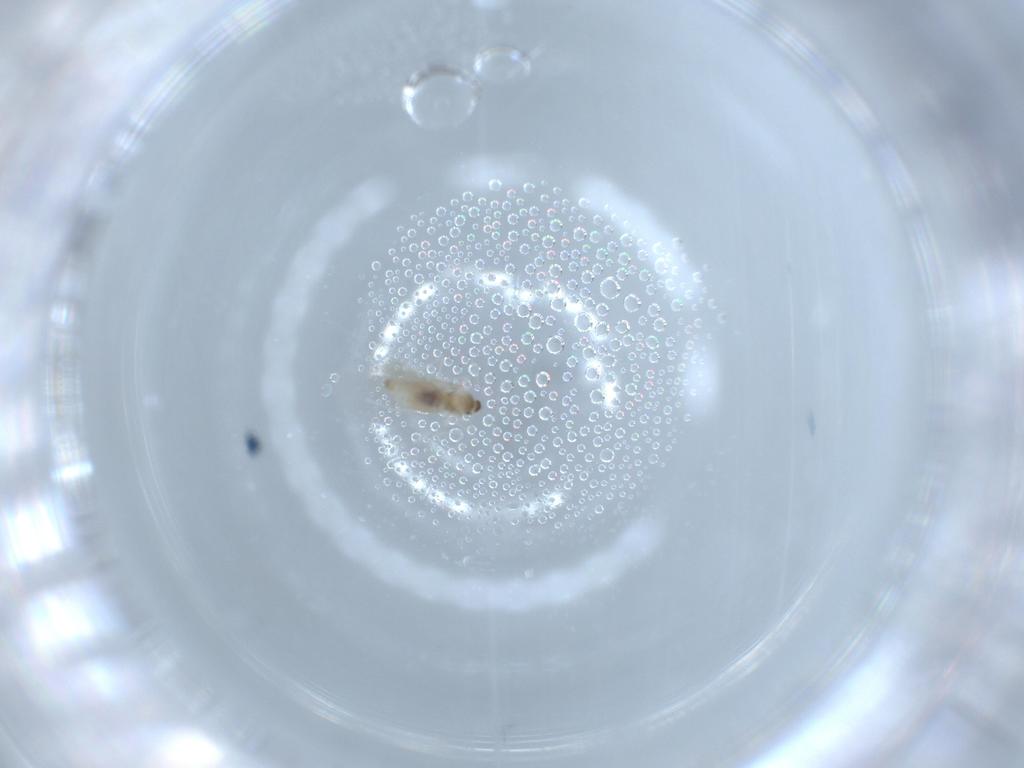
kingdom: Animalia
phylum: Arthropoda
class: Insecta
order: Diptera
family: Cecidomyiidae
